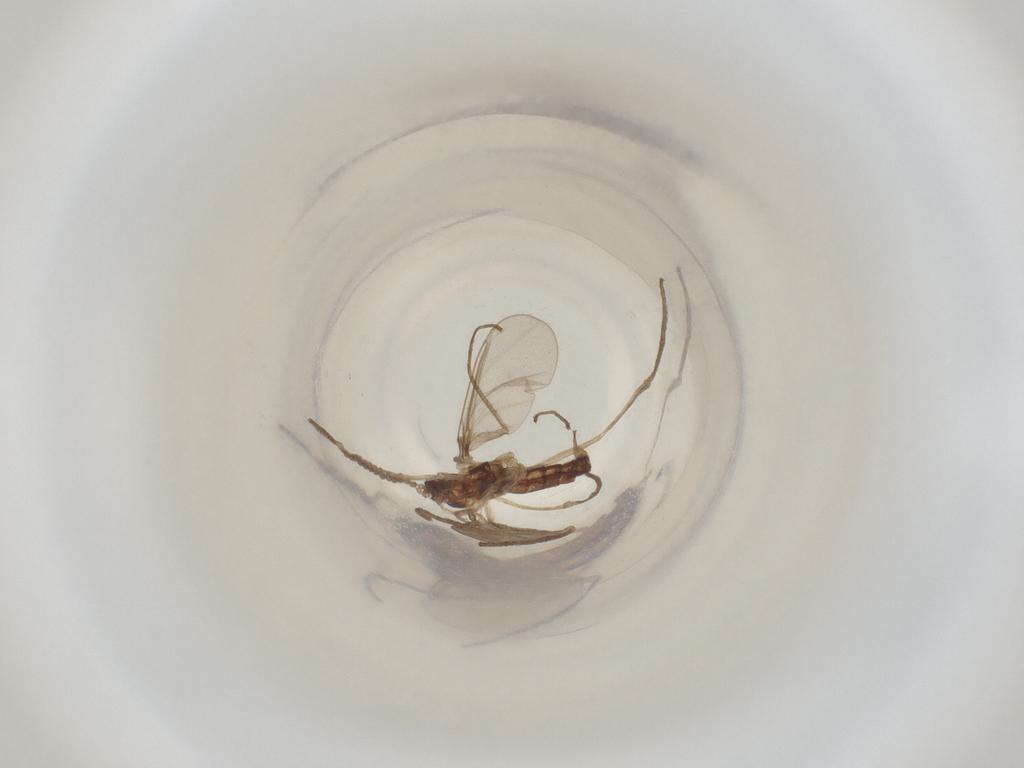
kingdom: Animalia
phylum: Arthropoda
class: Insecta
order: Diptera
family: Cecidomyiidae
